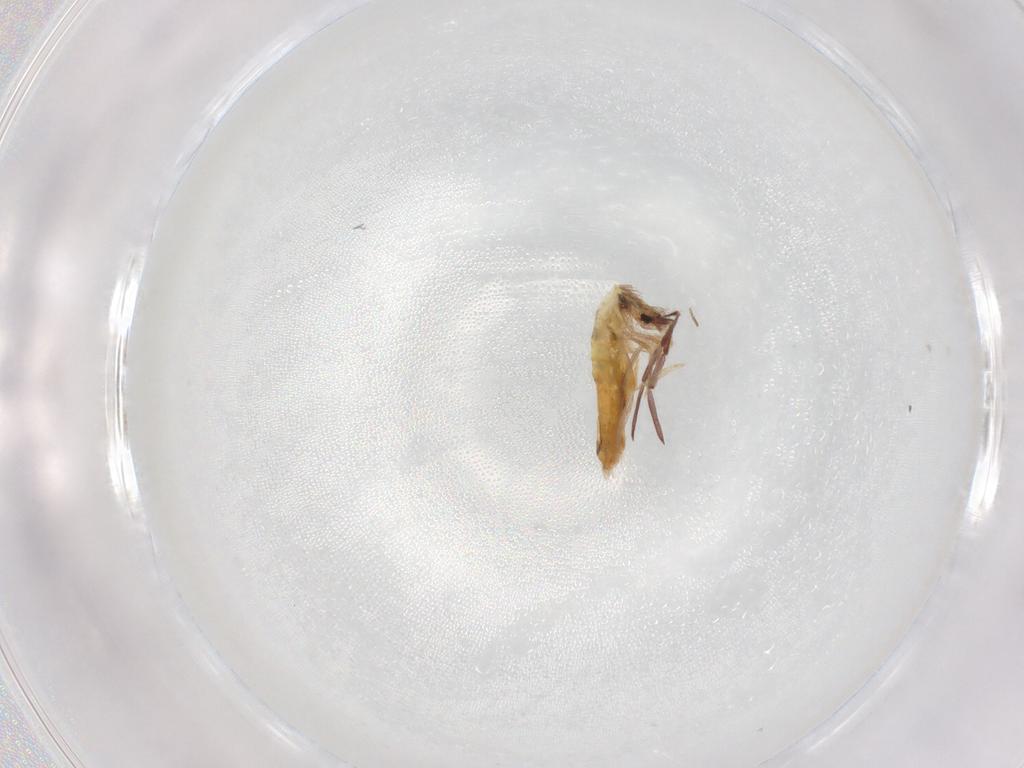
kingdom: Animalia
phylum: Arthropoda
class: Collembola
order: Entomobryomorpha
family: Entomobryidae
